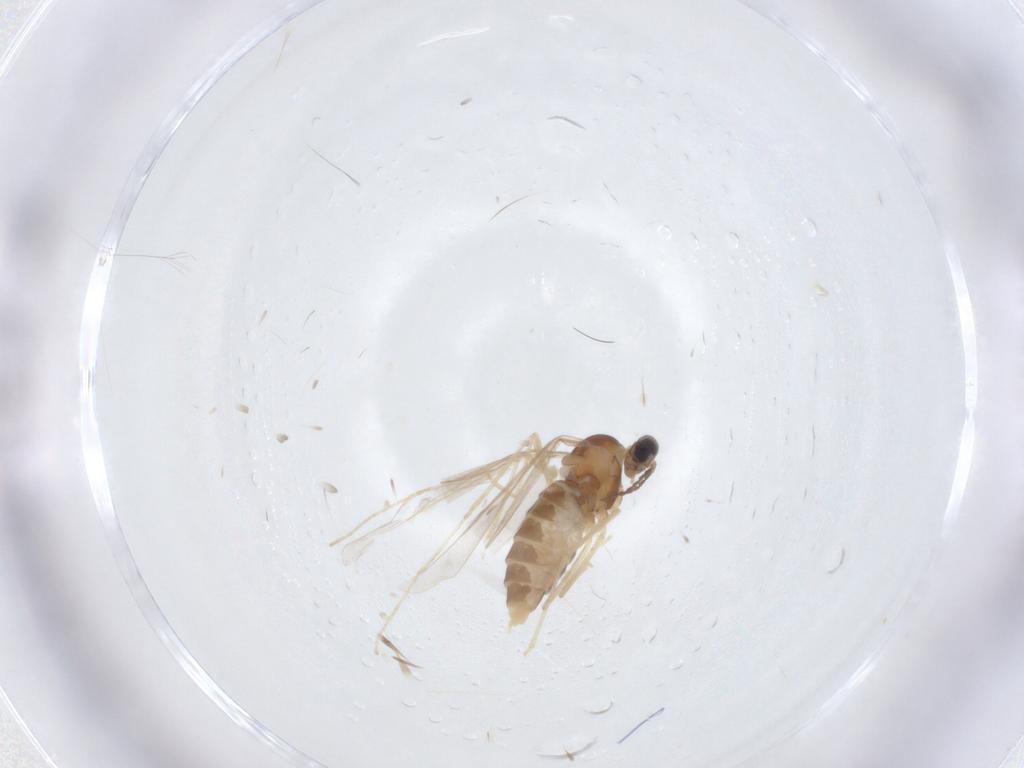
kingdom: Animalia
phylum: Arthropoda
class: Insecta
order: Diptera
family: Cecidomyiidae
